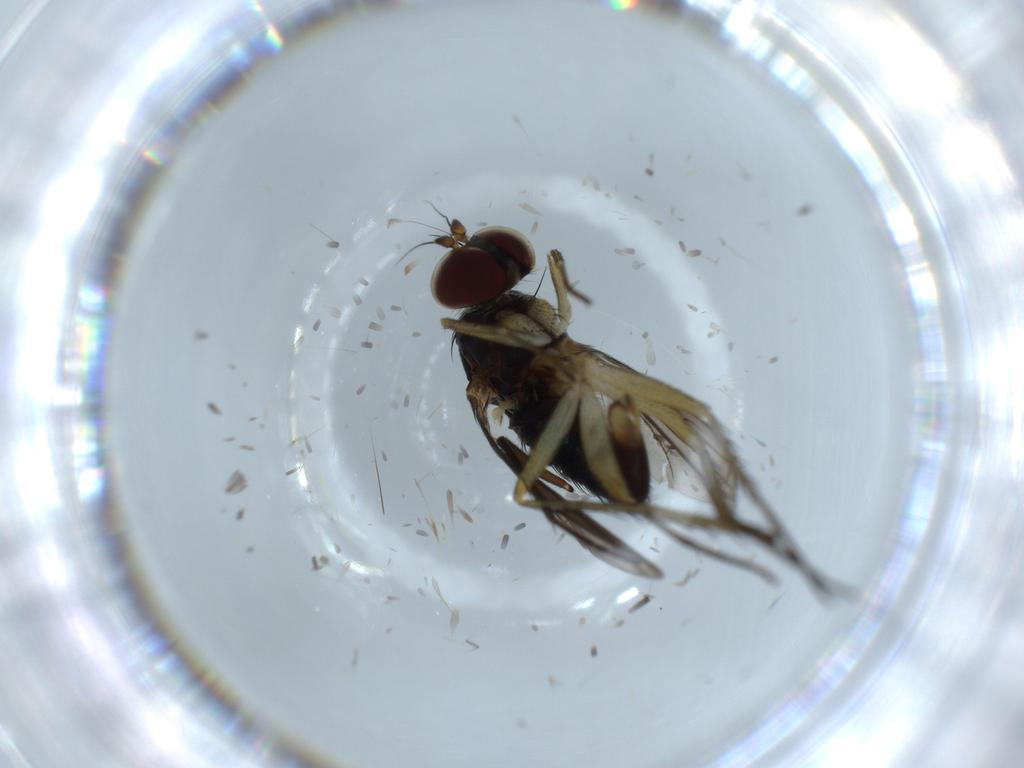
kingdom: Animalia
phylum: Arthropoda
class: Insecta
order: Diptera
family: Dolichopodidae
